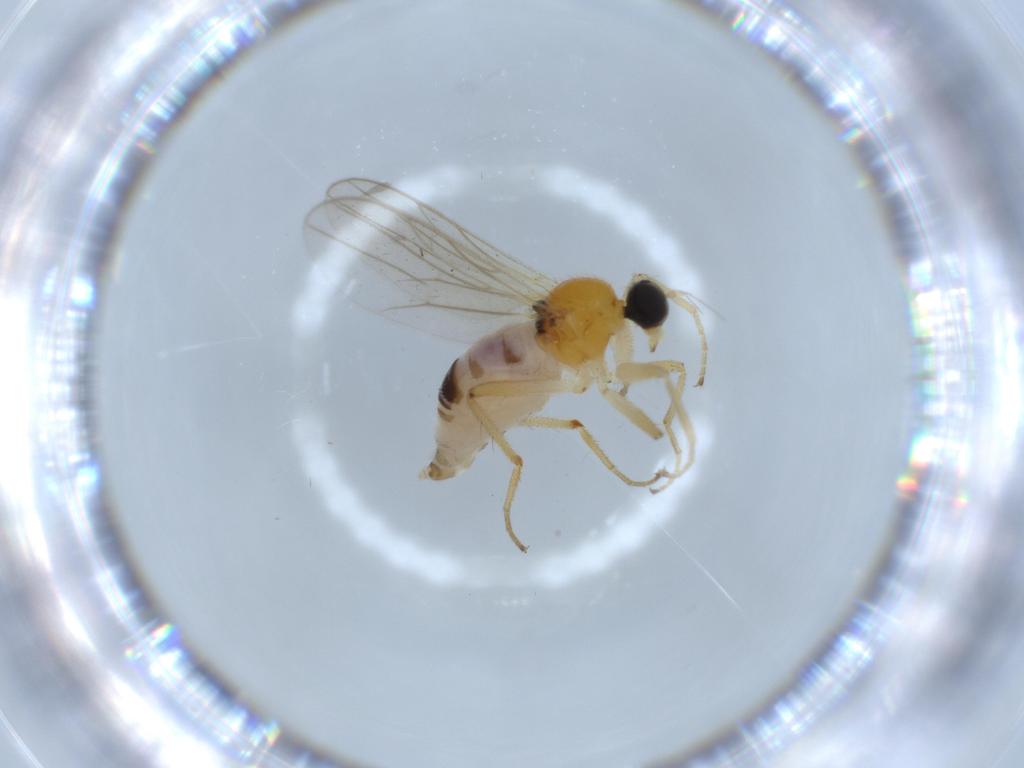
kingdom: Animalia
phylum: Arthropoda
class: Insecta
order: Diptera
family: Hybotidae
